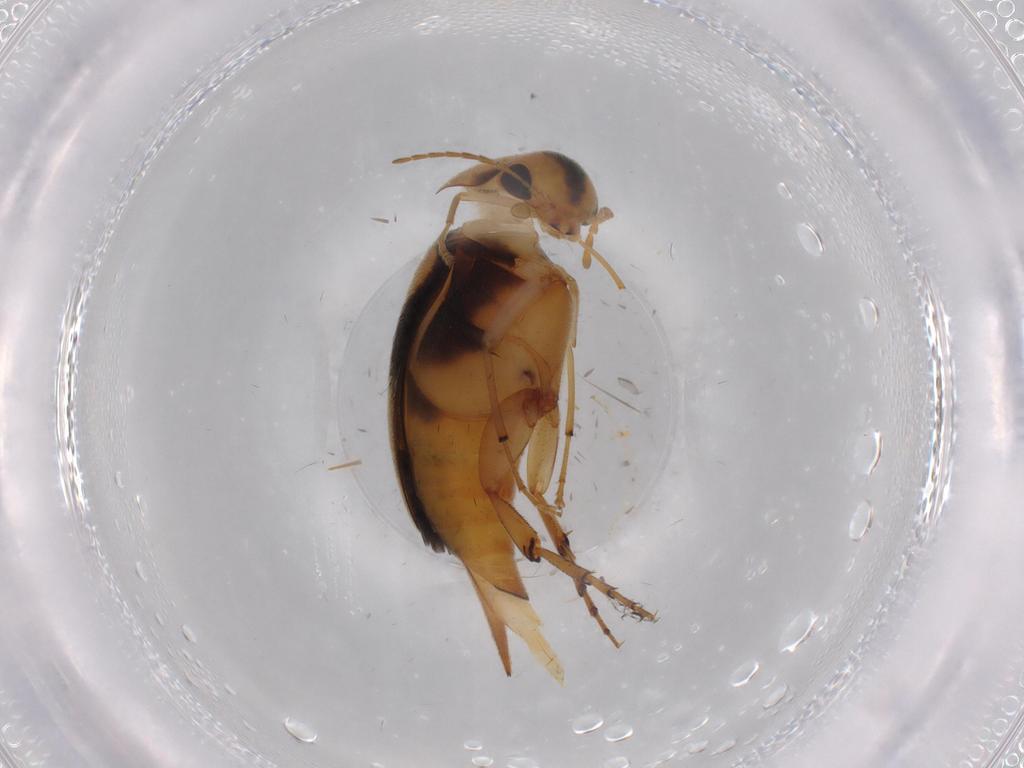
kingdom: Animalia
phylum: Arthropoda
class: Insecta
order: Coleoptera
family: Mordellidae
